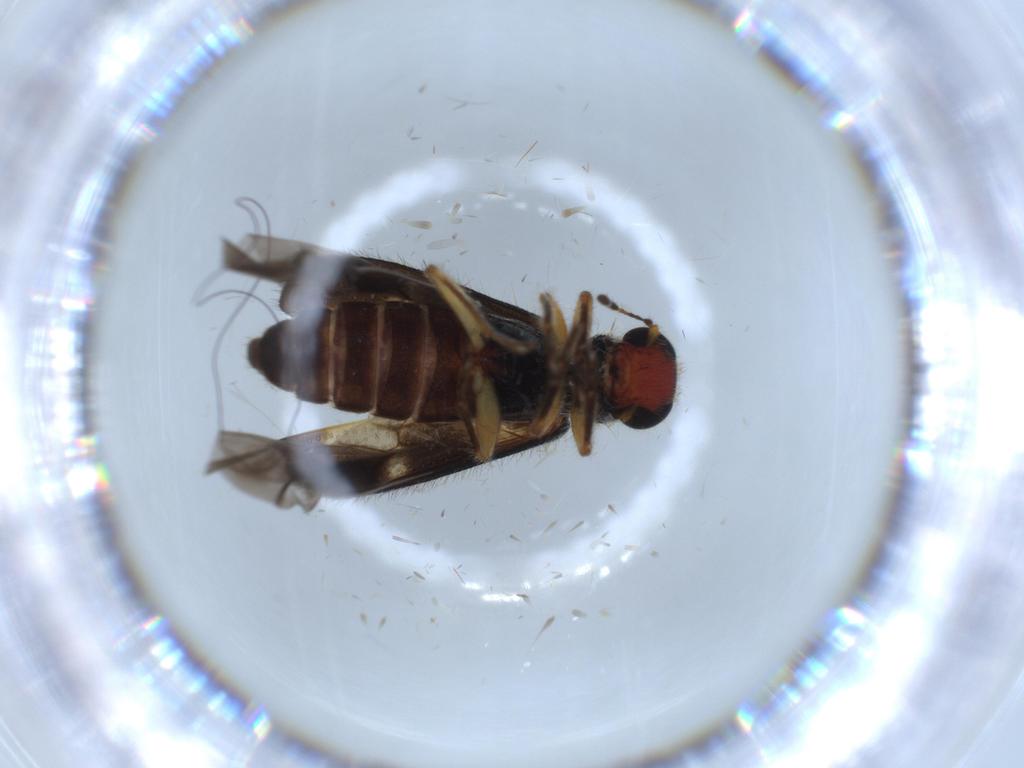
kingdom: Animalia
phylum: Arthropoda
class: Insecta
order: Coleoptera
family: Cleridae
